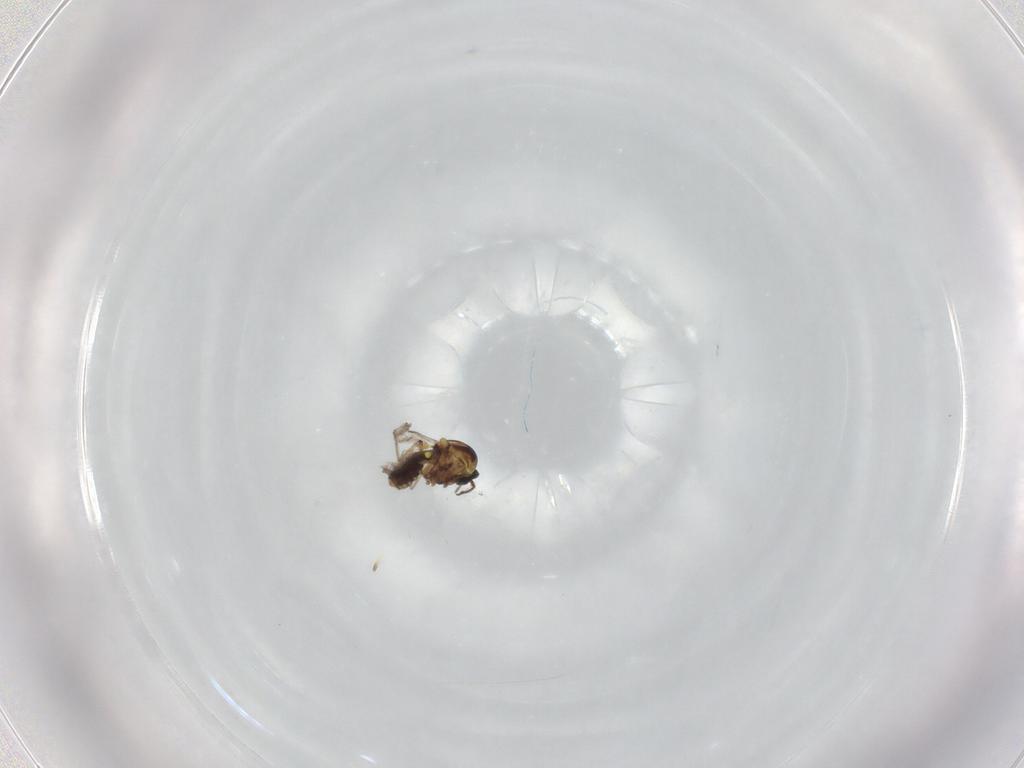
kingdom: Animalia
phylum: Arthropoda
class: Insecta
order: Diptera
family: Ceratopogonidae
